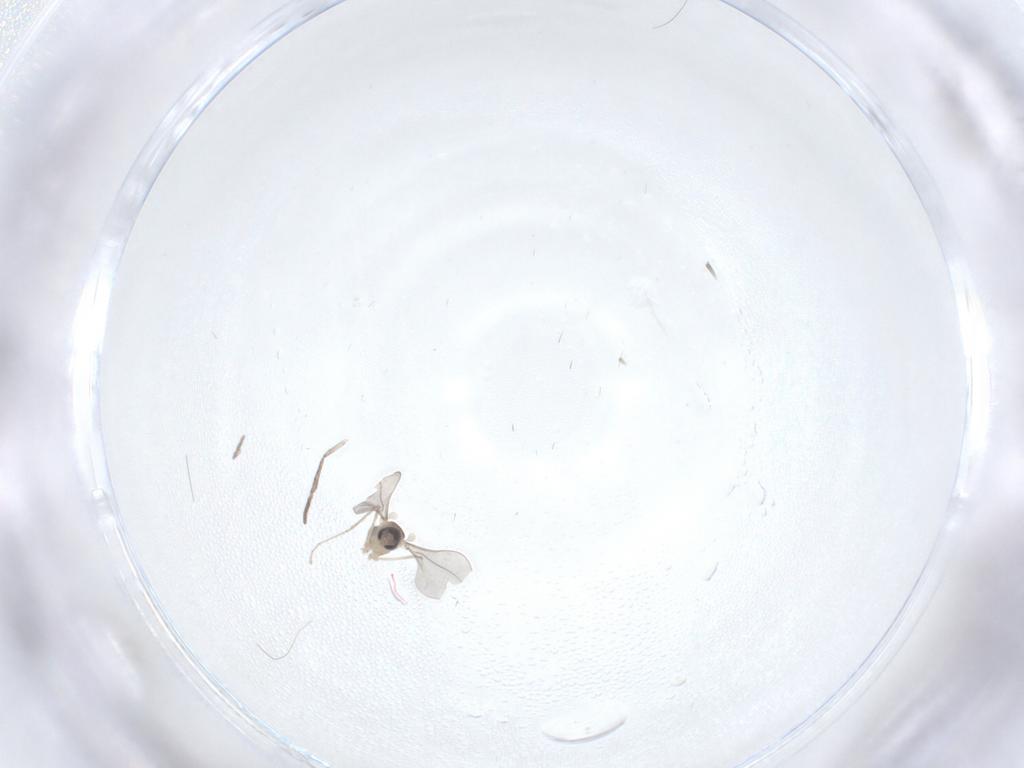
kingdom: Animalia
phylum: Arthropoda
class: Insecta
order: Diptera
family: Cecidomyiidae
